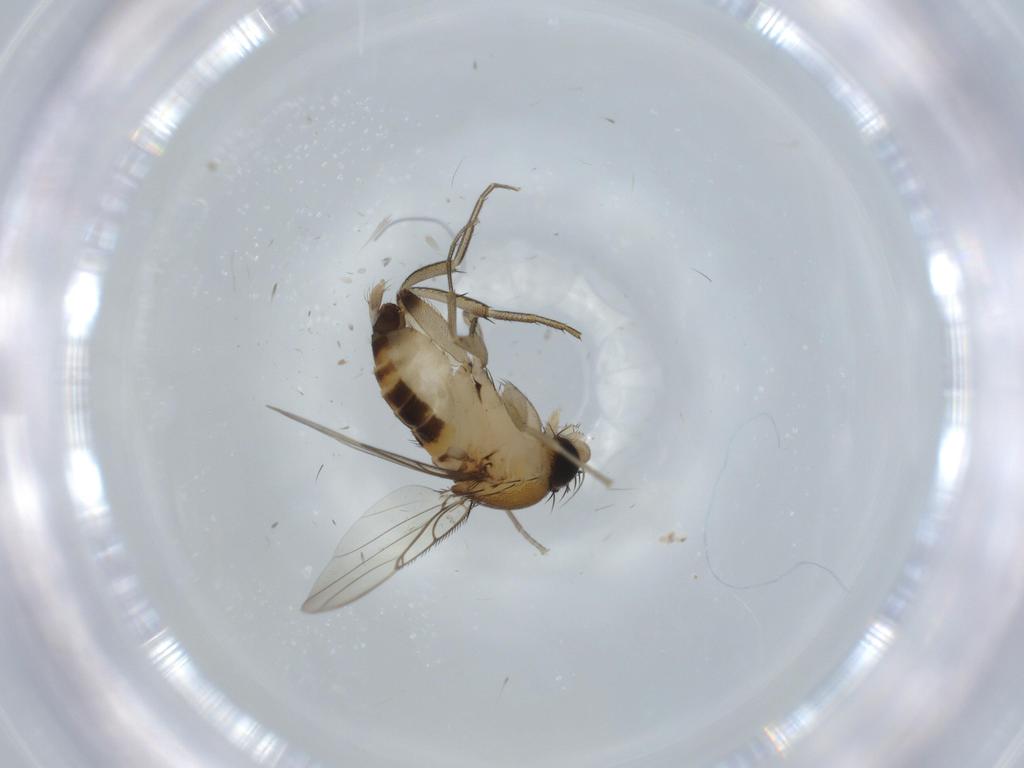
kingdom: Animalia
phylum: Arthropoda
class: Insecta
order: Diptera
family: Phoridae
